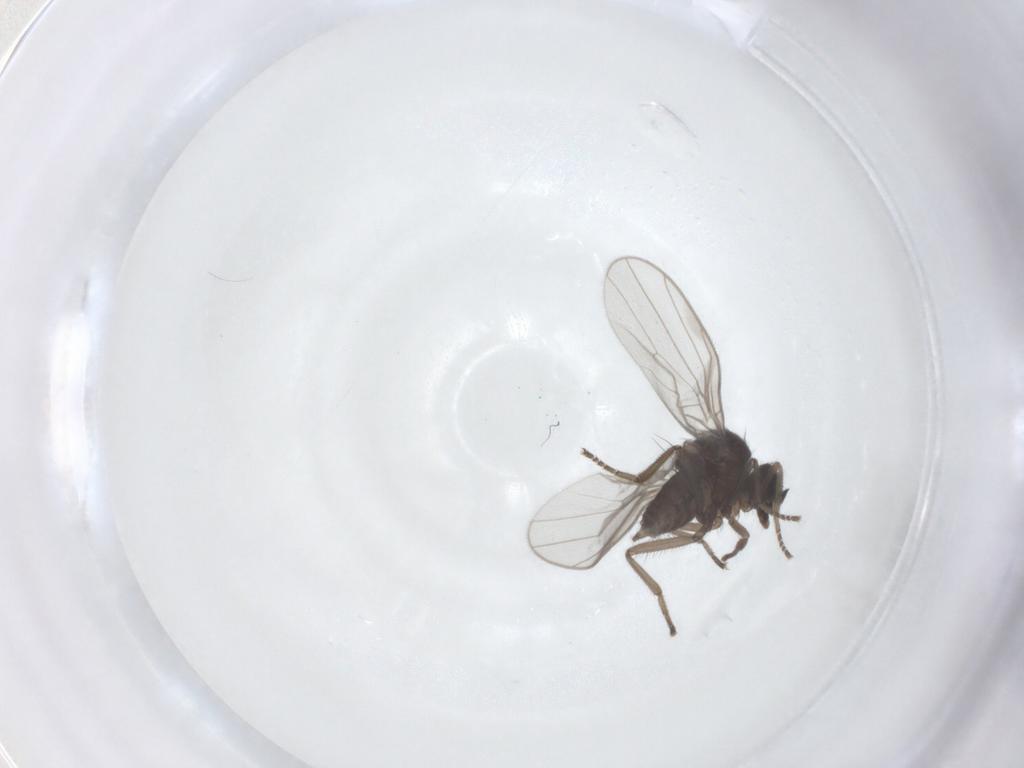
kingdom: Animalia
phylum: Arthropoda
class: Insecta
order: Diptera
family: Hybotidae
